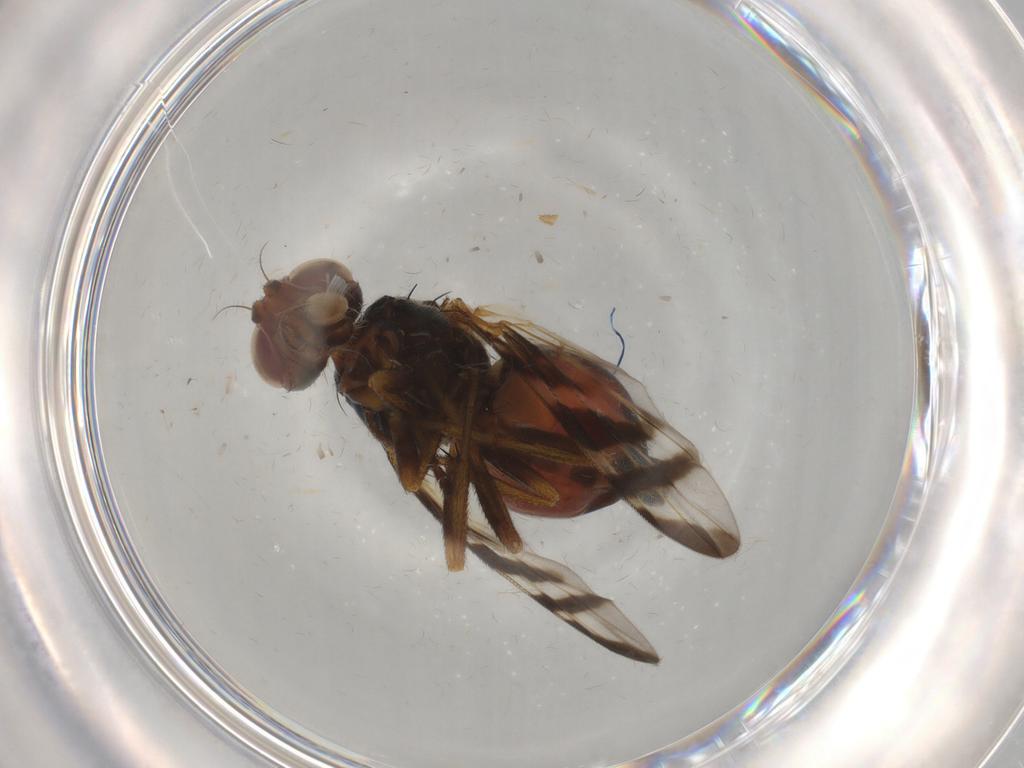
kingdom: Animalia
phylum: Arthropoda
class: Insecta
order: Diptera
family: Platystomatidae
